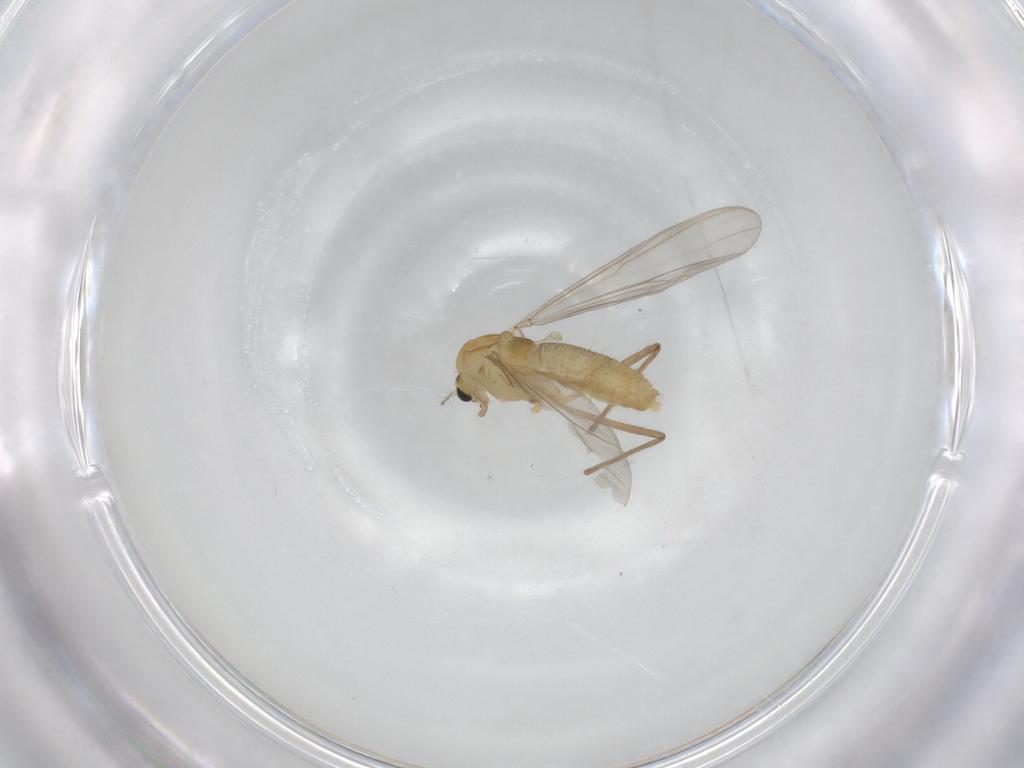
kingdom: Animalia
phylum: Arthropoda
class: Insecta
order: Diptera
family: Chironomidae
